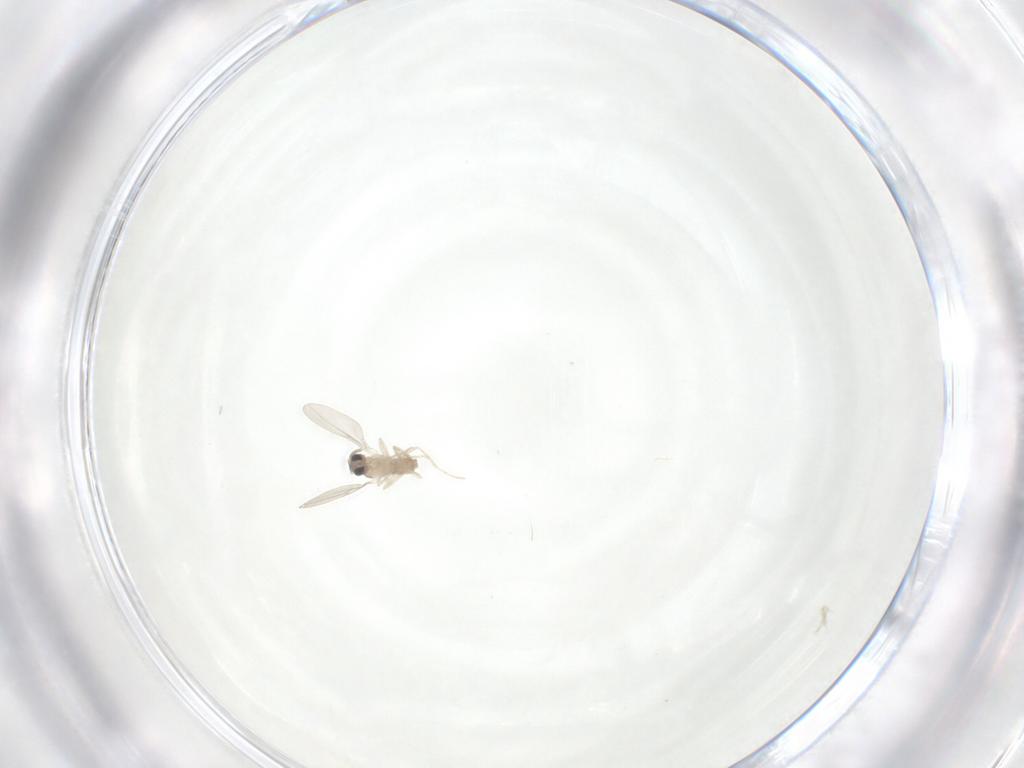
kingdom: Animalia
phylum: Arthropoda
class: Insecta
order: Diptera
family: Cecidomyiidae
